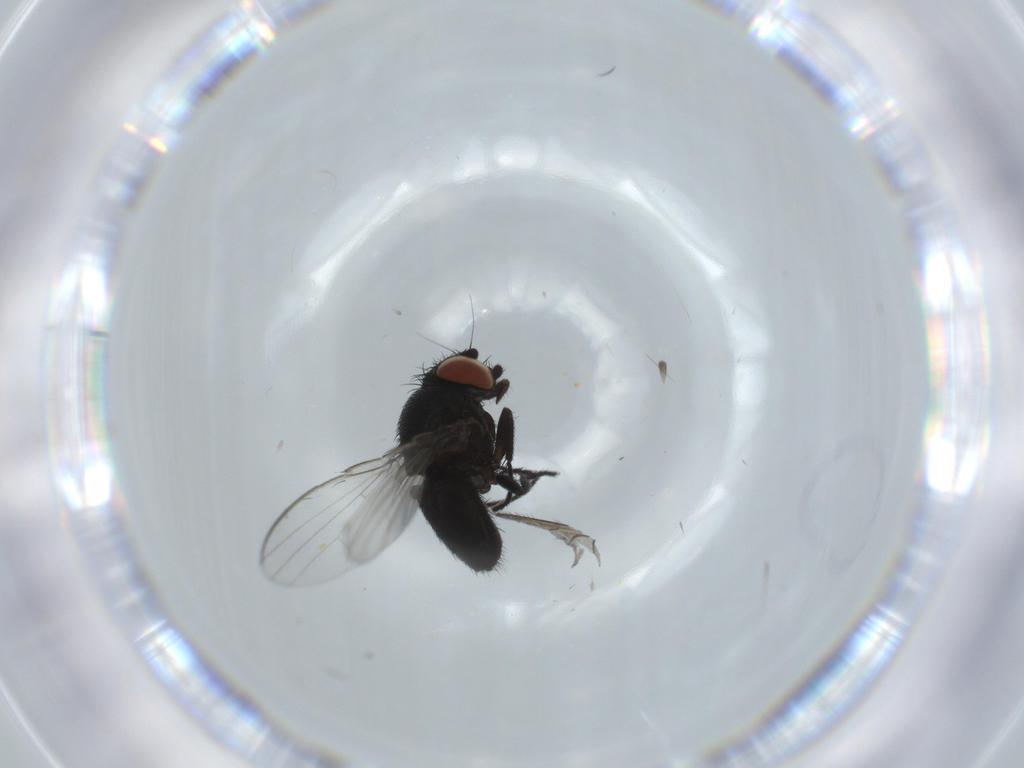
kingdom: Animalia
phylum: Arthropoda
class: Insecta
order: Diptera
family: Milichiidae
